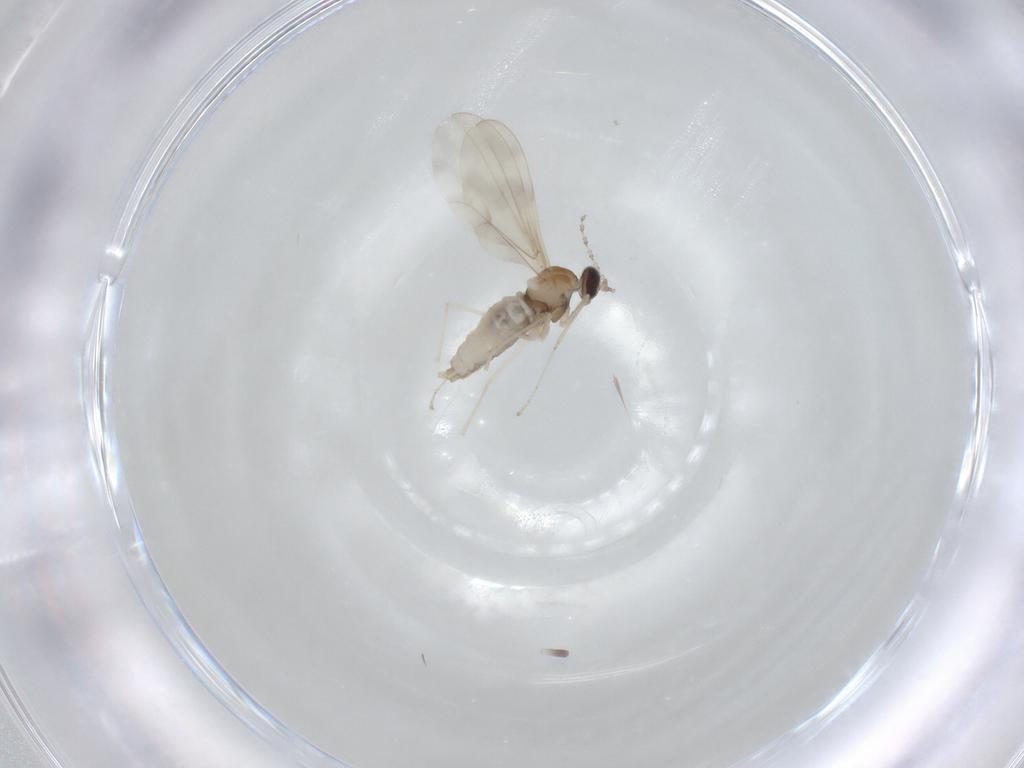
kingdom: Animalia
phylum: Arthropoda
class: Insecta
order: Diptera
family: Cecidomyiidae
